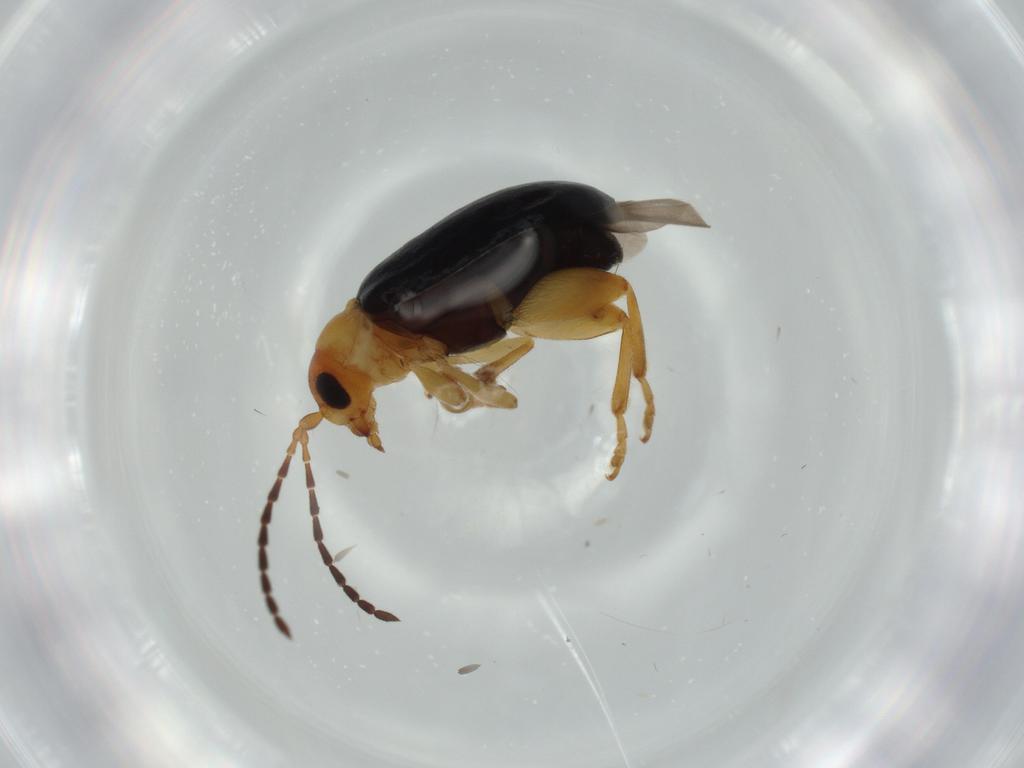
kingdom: Animalia
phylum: Arthropoda
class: Insecta
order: Coleoptera
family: Chrysomelidae
